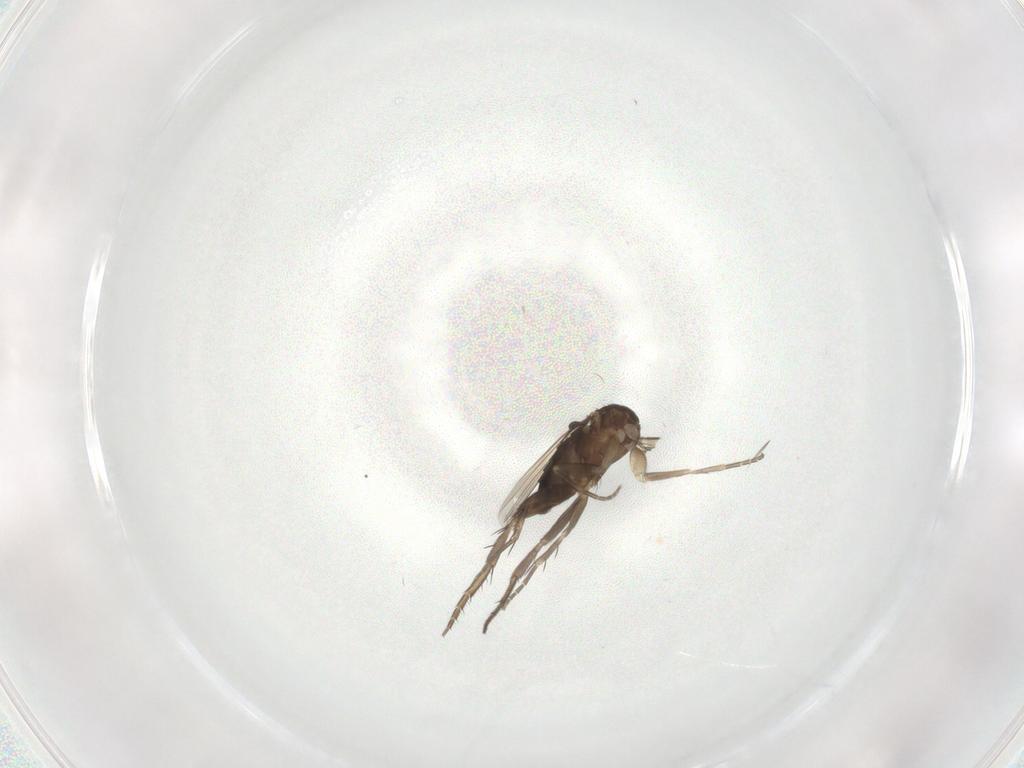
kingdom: Animalia
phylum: Arthropoda
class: Insecta
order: Diptera
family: Phoridae
